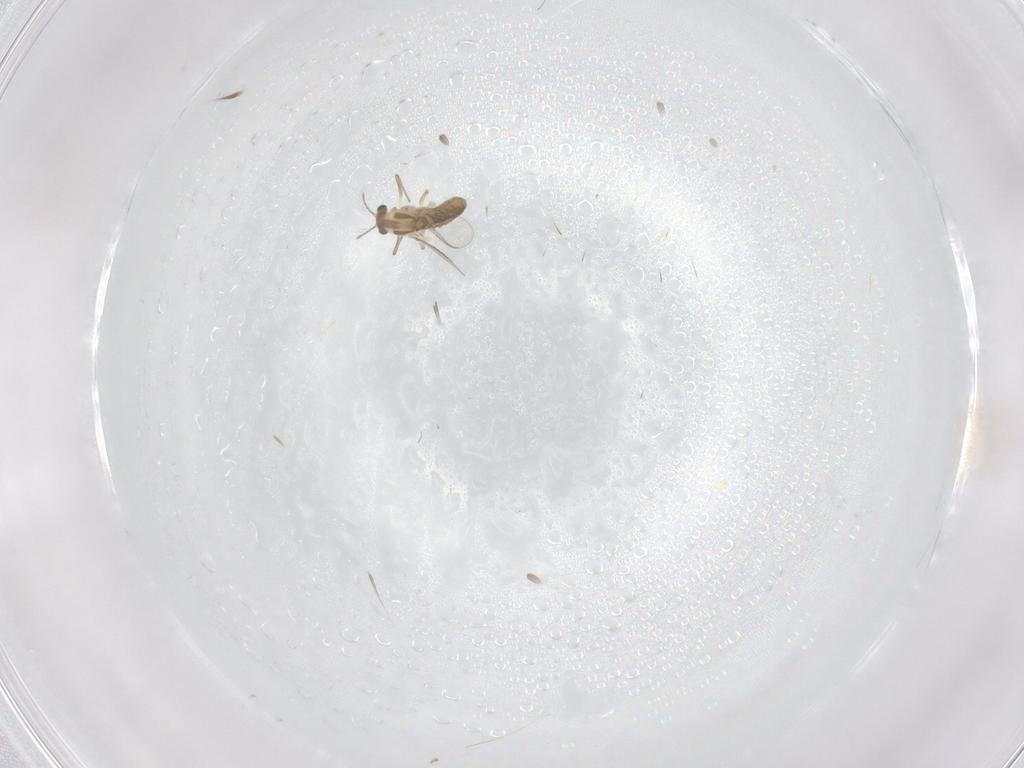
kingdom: Animalia
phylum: Arthropoda
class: Insecta
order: Lepidoptera
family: Tineidae
